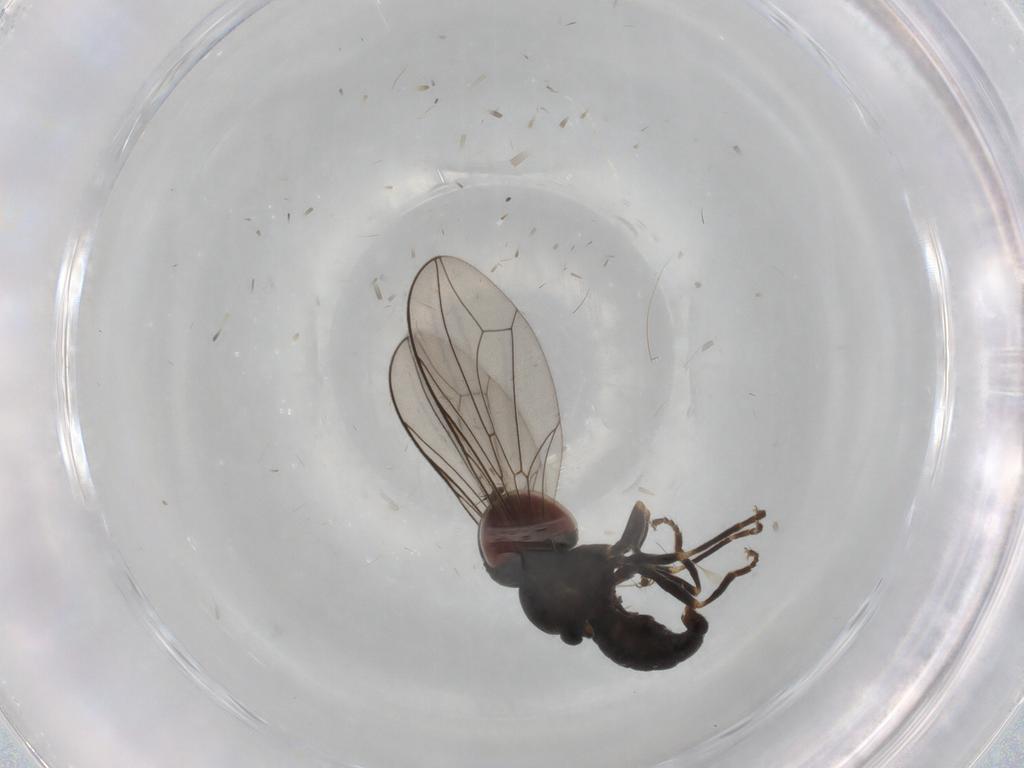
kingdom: Animalia
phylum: Arthropoda
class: Insecta
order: Diptera
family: Pipunculidae
